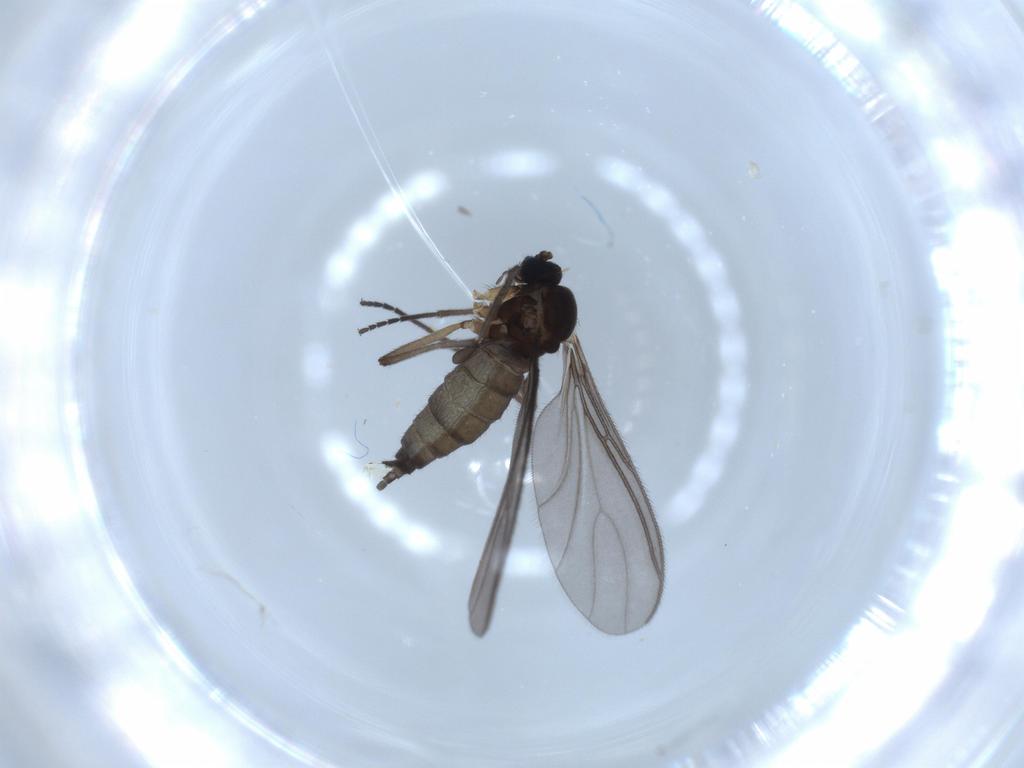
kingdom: Animalia
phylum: Arthropoda
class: Insecta
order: Diptera
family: Sciaridae
